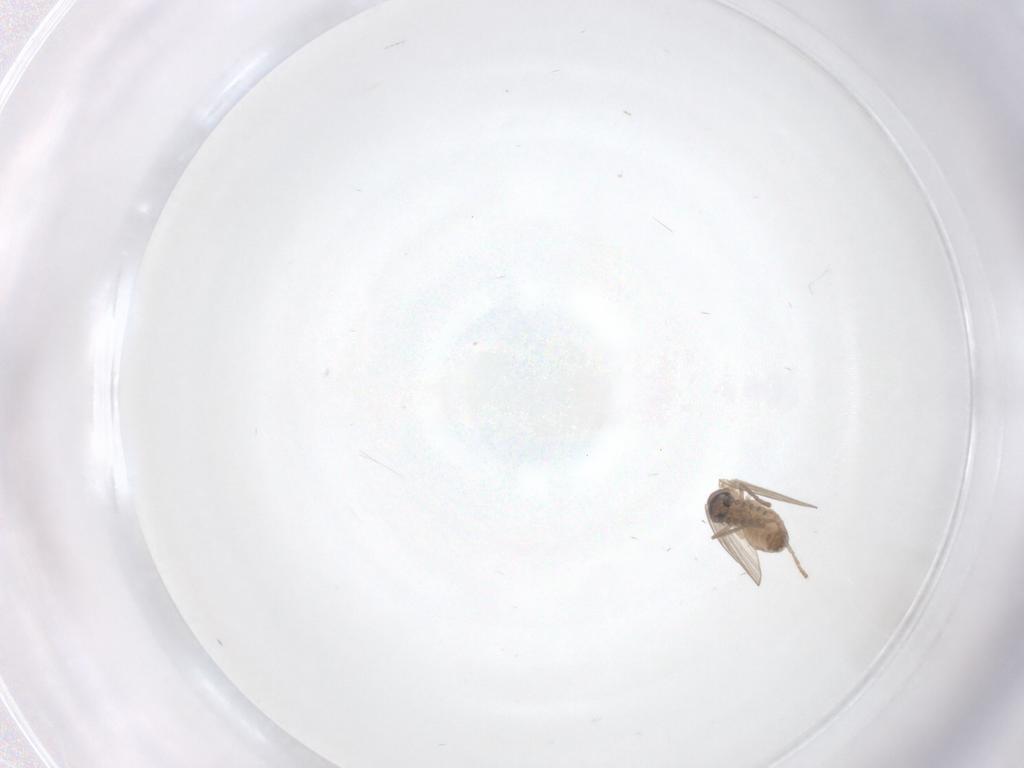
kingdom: Animalia
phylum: Arthropoda
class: Insecta
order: Diptera
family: Psychodidae
